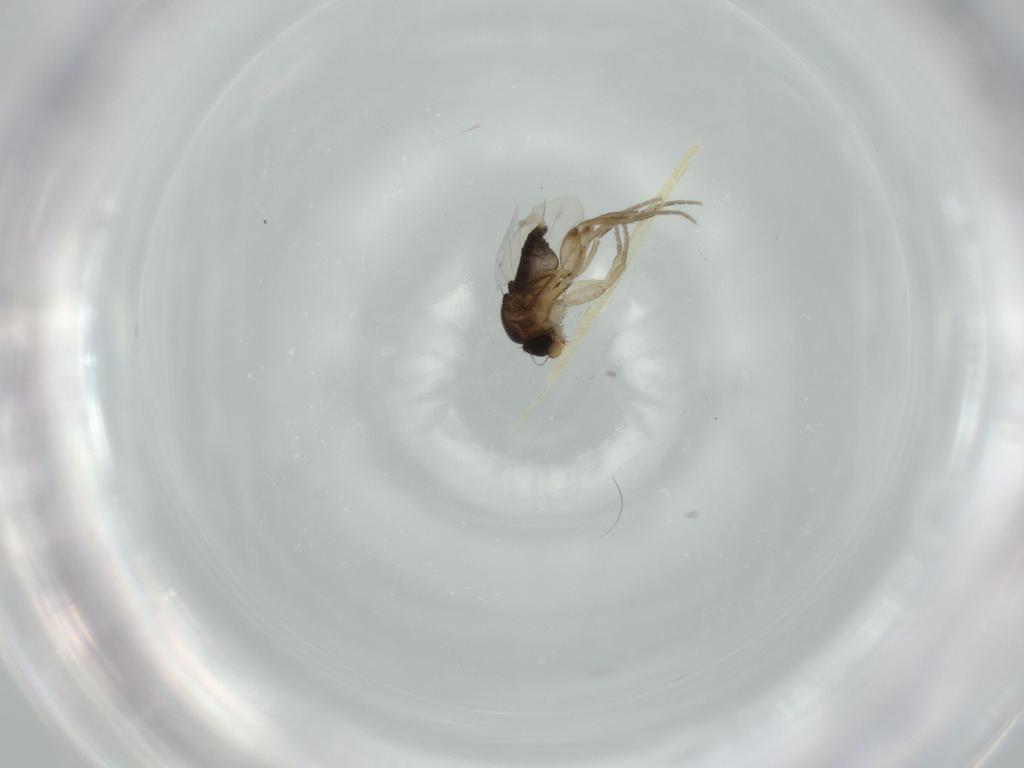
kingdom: Animalia
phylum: Arthropoda
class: Insecta
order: Diptera
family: Phoridae
